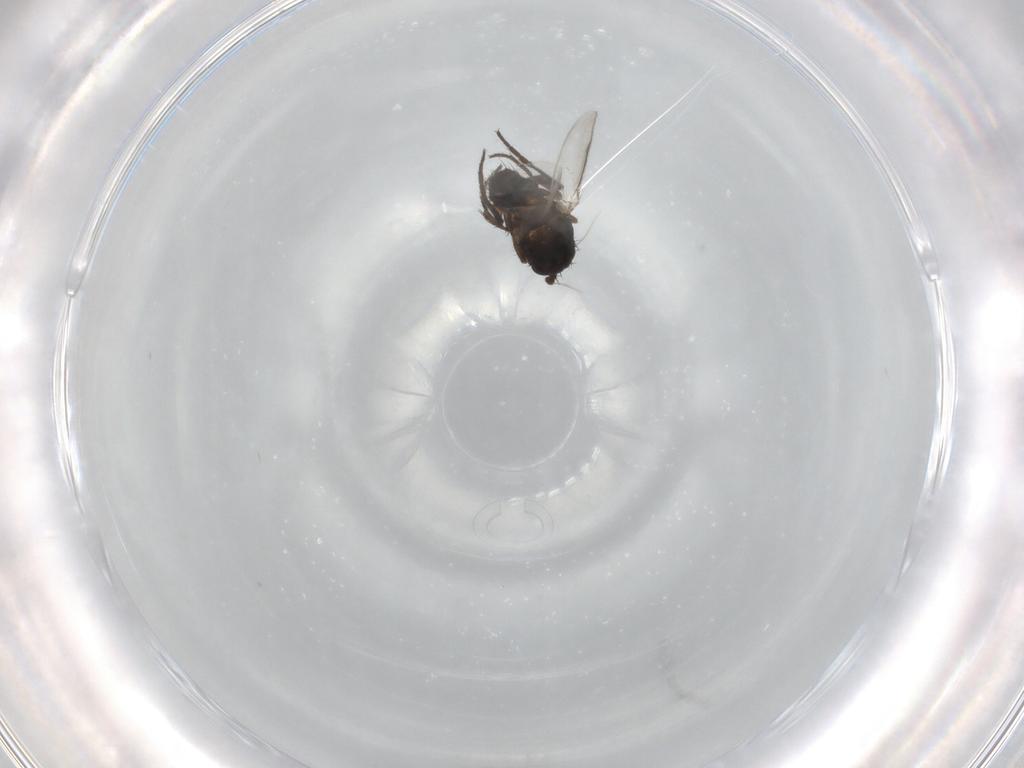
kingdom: Animalia
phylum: Arthropoda
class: Insecta
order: Diptera
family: Sphaeroceridae
